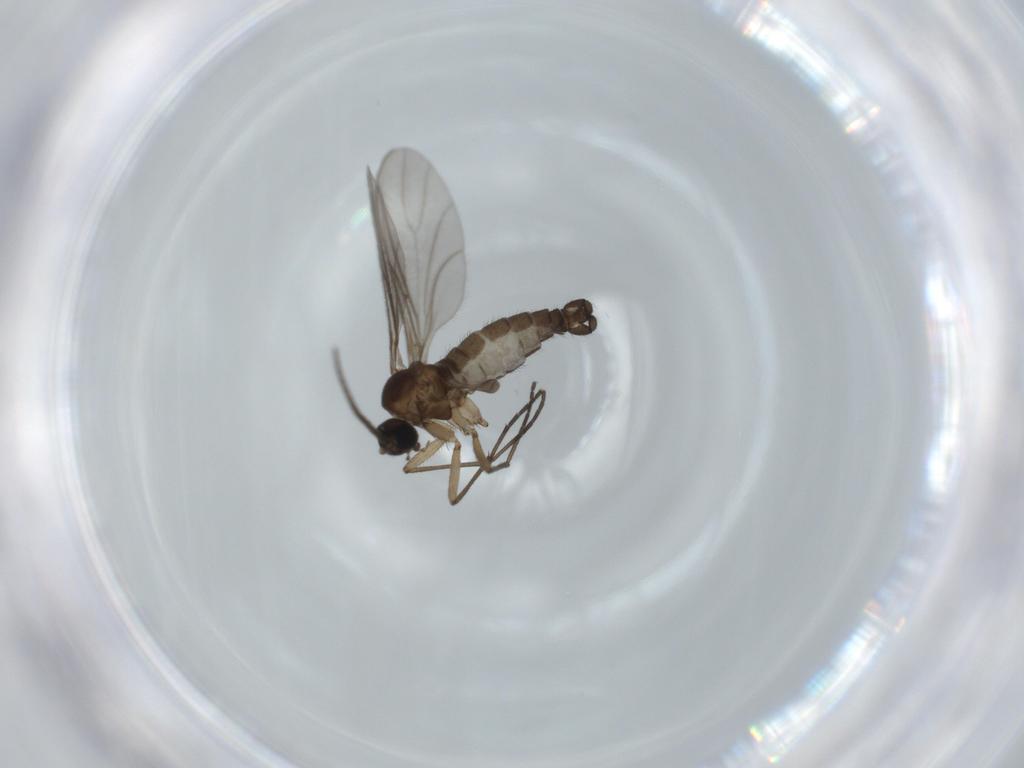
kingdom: Animalia
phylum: Arthropoda
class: Insecta
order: Diptera
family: Sciaridae
